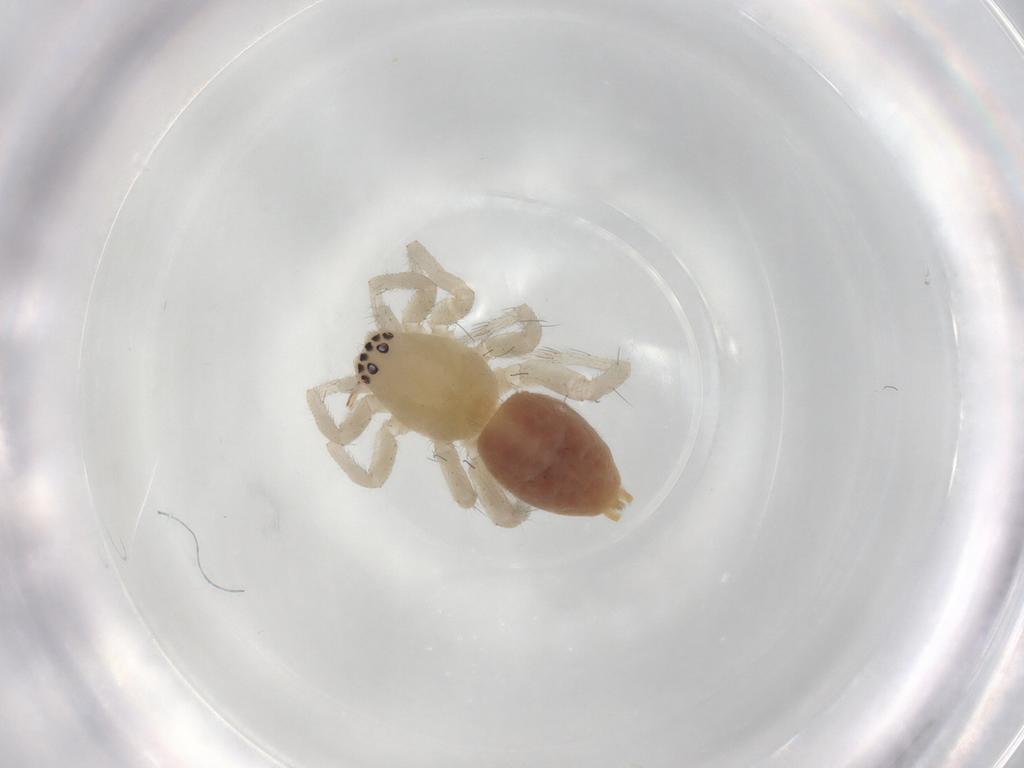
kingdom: Animalia
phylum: Arthropoda
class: Arachnida
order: Araneae
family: Clubionidae
